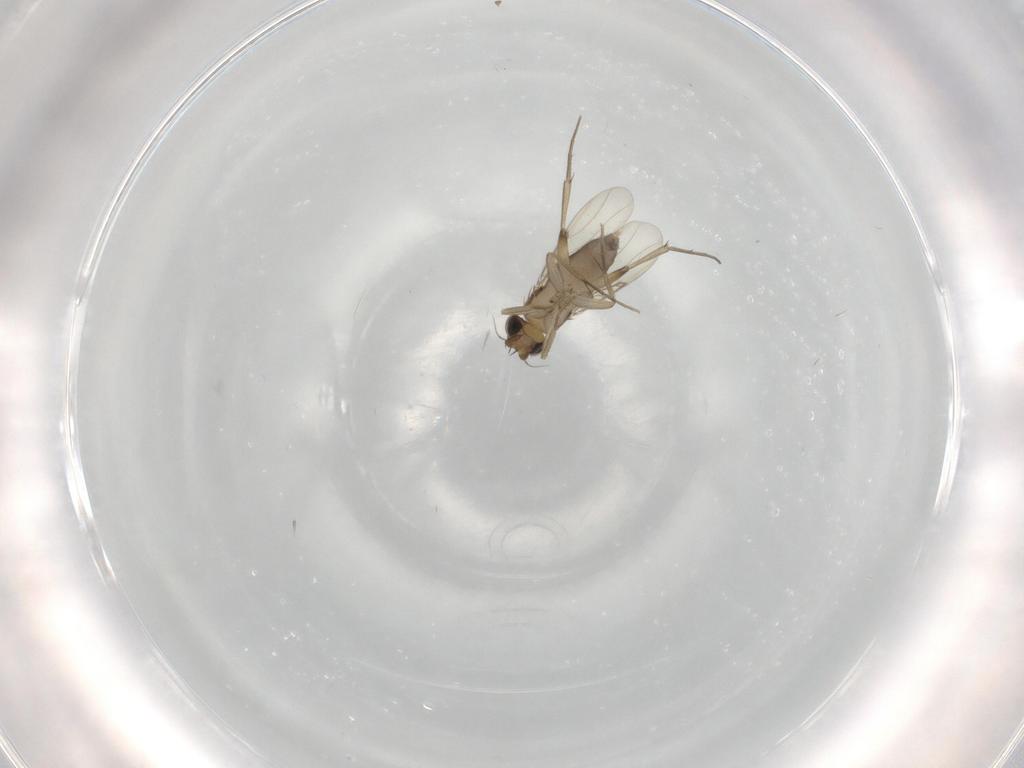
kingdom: Animalia
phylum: Arthropoda
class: Insecta
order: Diptera
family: Phoridae
